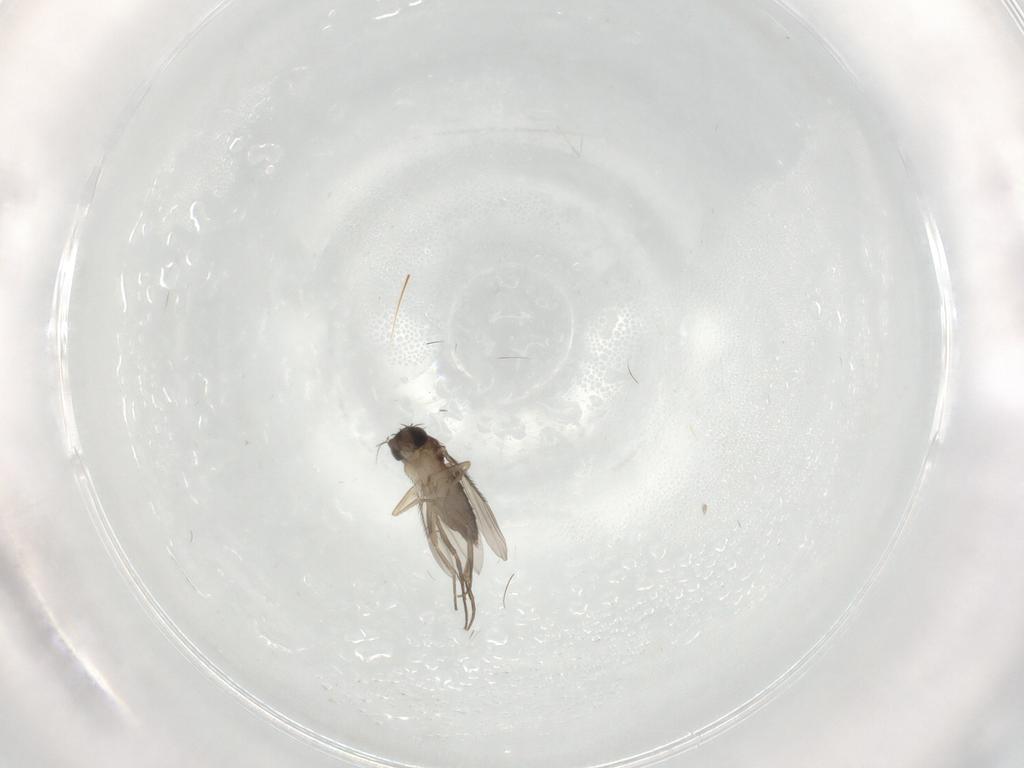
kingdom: Animalia
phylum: Arthropoda
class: Insecta
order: Diptera
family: Phoridae
